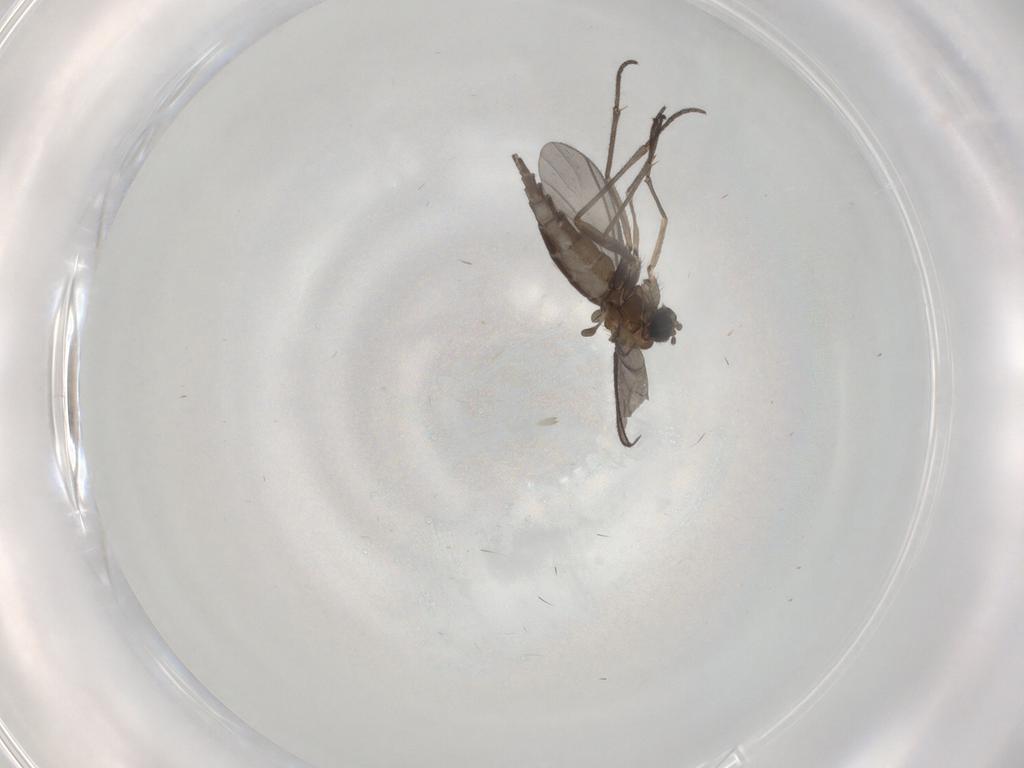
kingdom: Animalia
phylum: Arthropoda
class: Insecta
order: Diptera
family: Sciaridae
